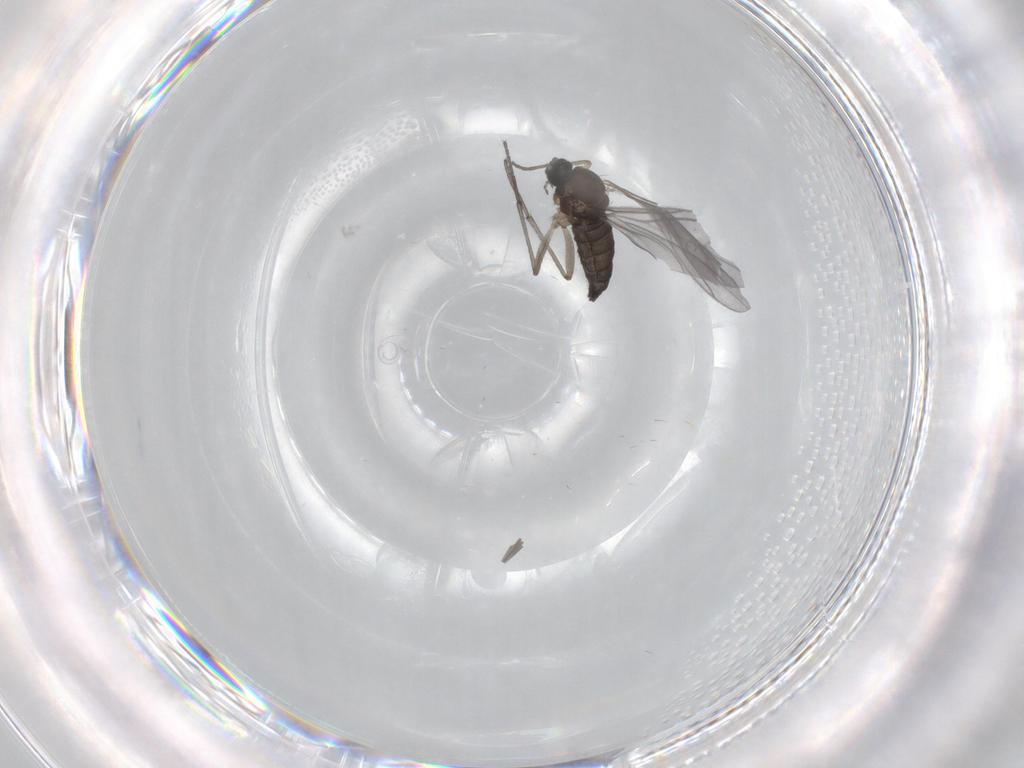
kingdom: Animalia
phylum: Arthropoda
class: Insecta
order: Diptera
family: Sciaridae
